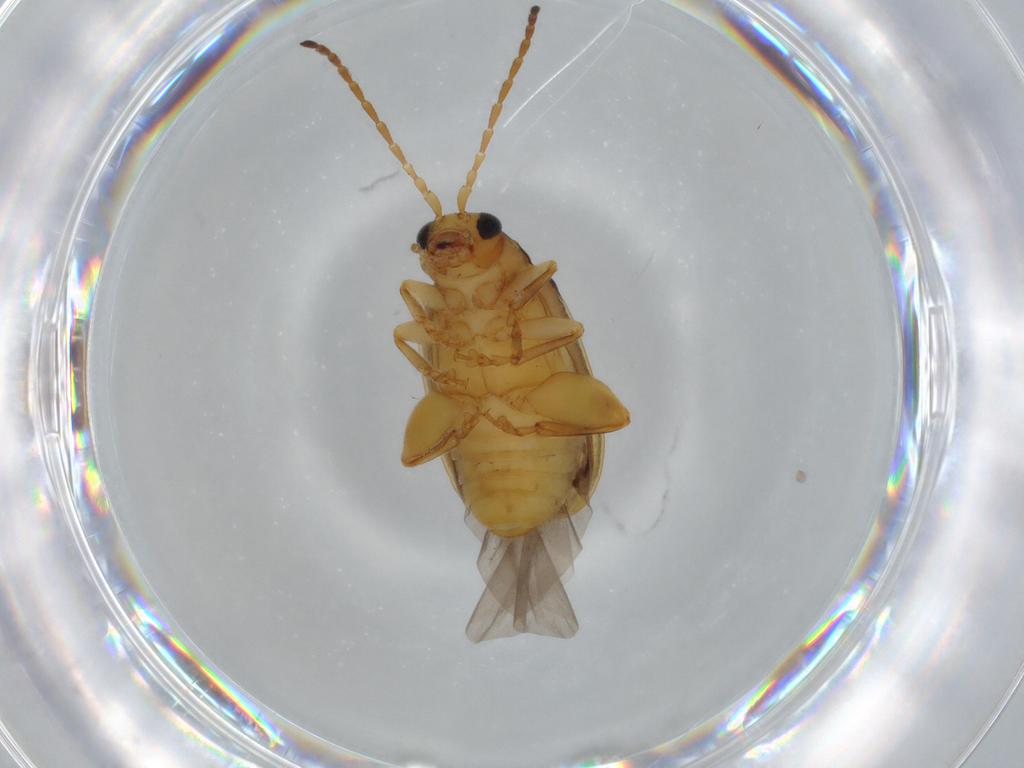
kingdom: Animalia
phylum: Arthropoda
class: Insecta
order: Coleoptera
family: Chrysomelidae
